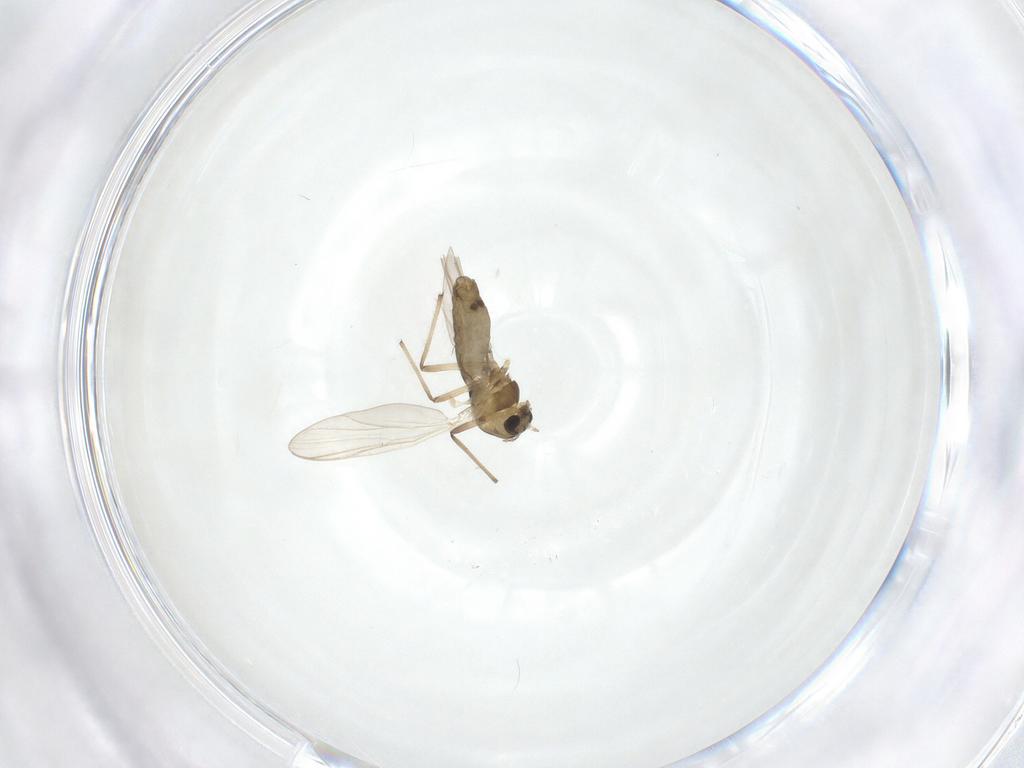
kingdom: Animalia
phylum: Arthropoda
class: Insecta
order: Diptera
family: Chironomidae
